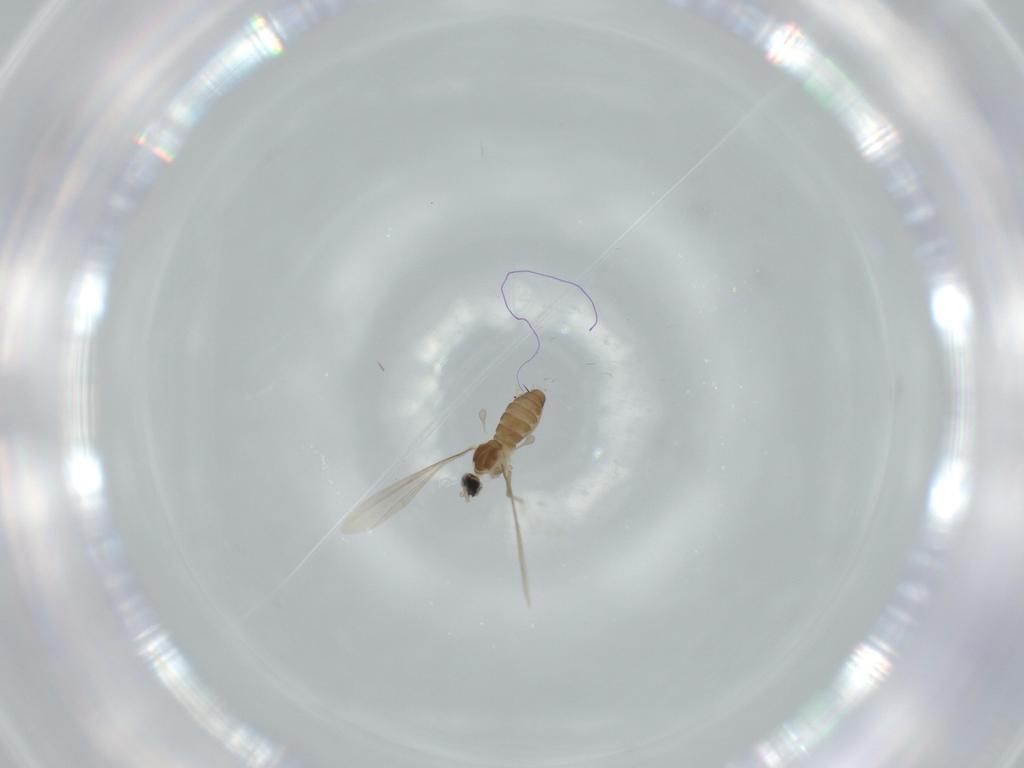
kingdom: Animalia
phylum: Arthropoda
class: Insecta
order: Diptera
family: Cecidomyiidae
